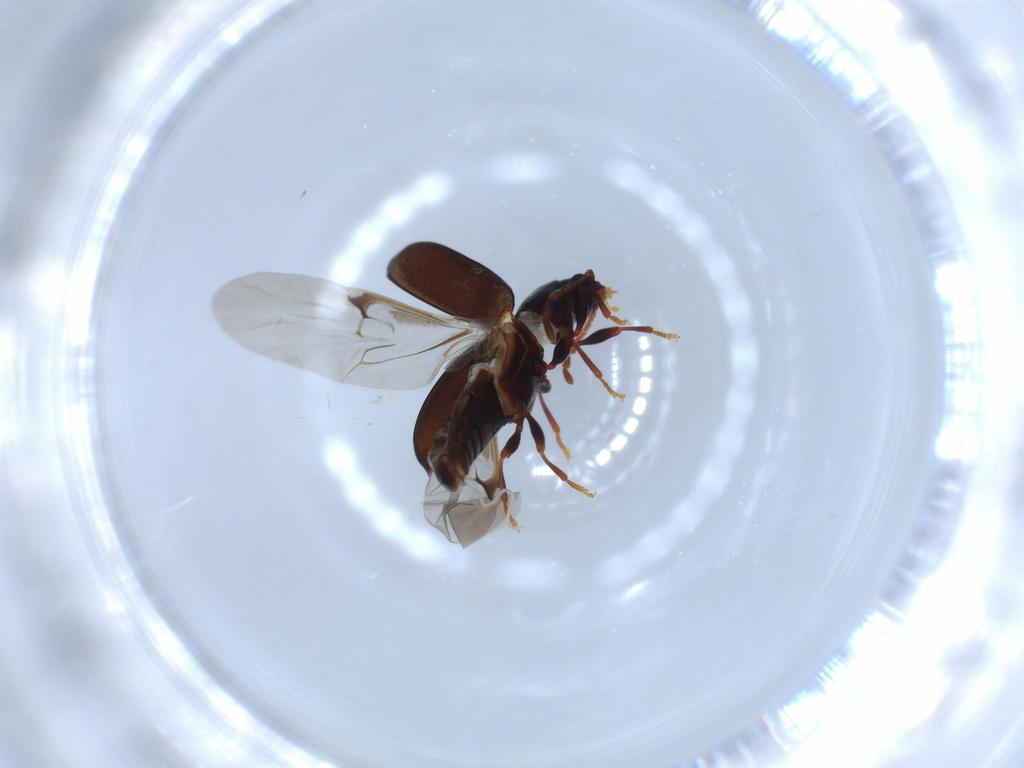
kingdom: Animalia
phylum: Arthropoda
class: Insecta
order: Coleoptera
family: Ptinidae
